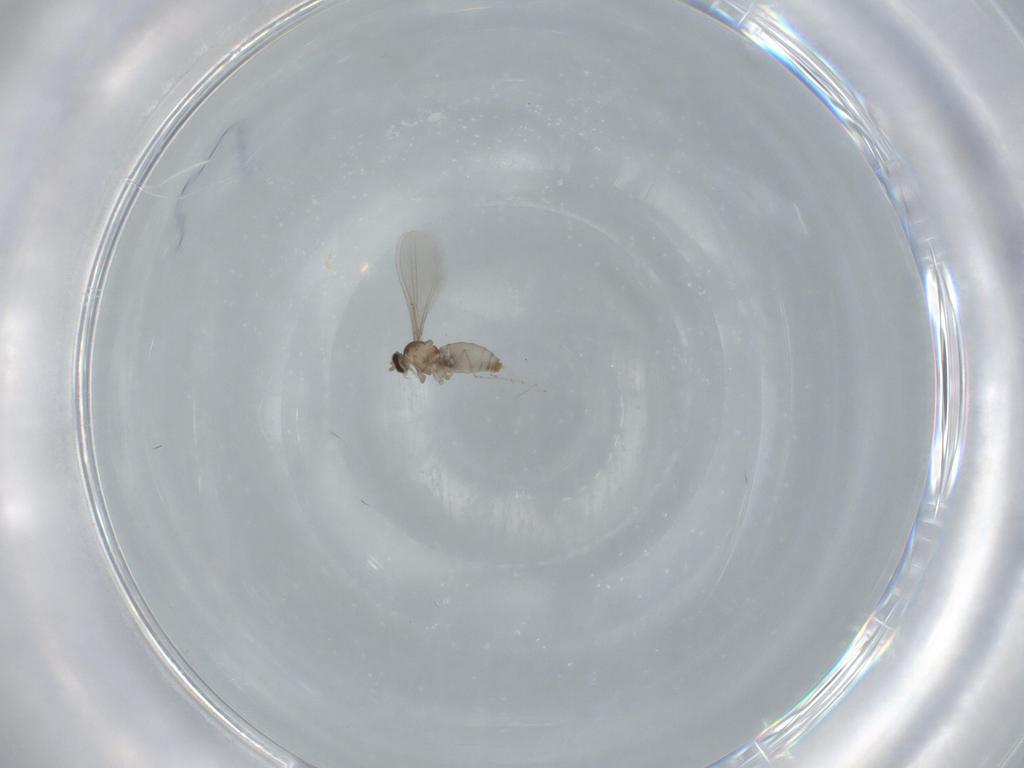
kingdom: Animalia
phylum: Arthropoda
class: Insecta
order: Diptera
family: Cecidomyiidae
